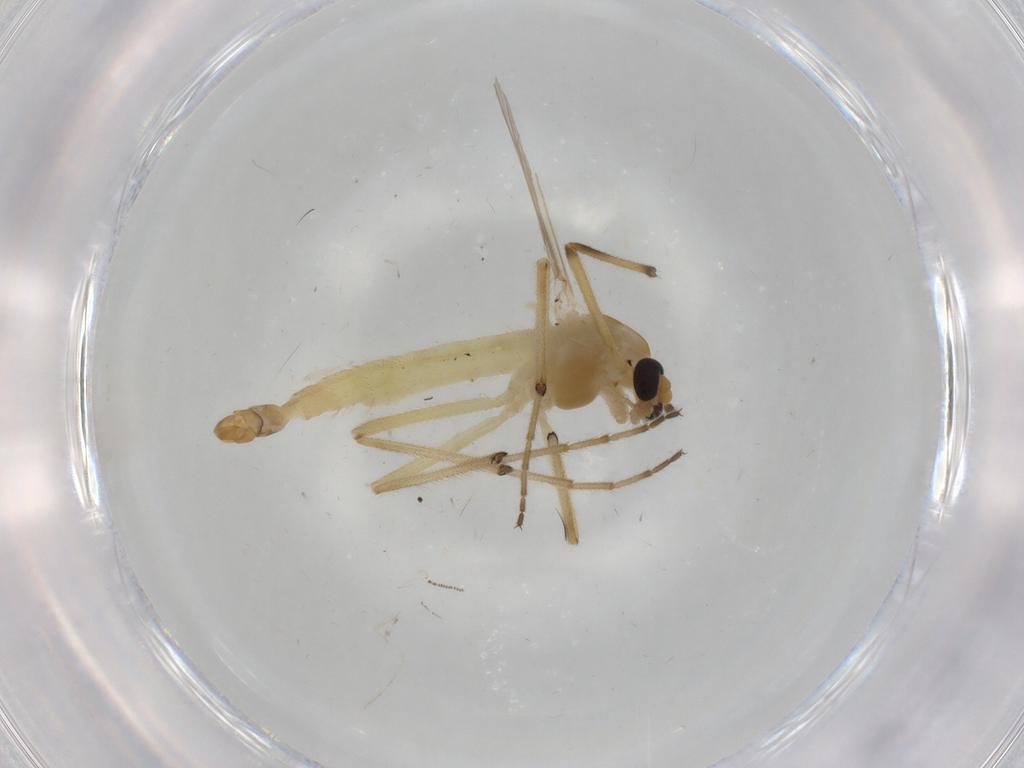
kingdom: Animalia
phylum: Arthropoda
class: Insecta
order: Diptera
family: Chironomidae
